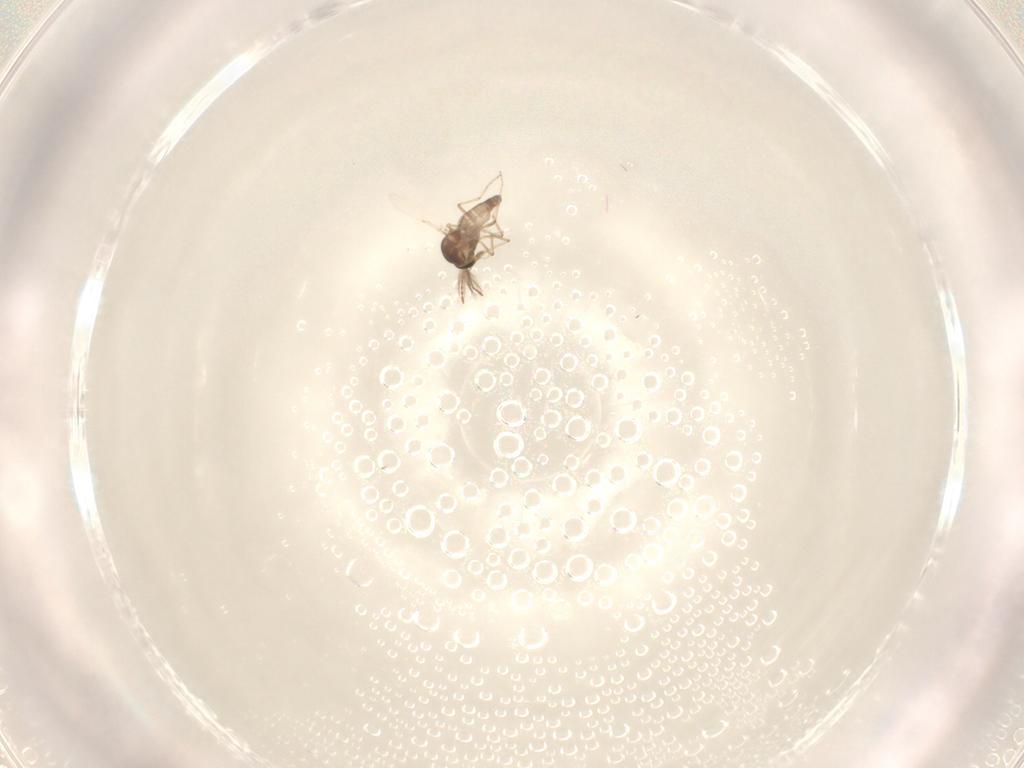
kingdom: Animalia
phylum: Arthropoda
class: Insecta
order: Diptera
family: Ceratopogonidae
